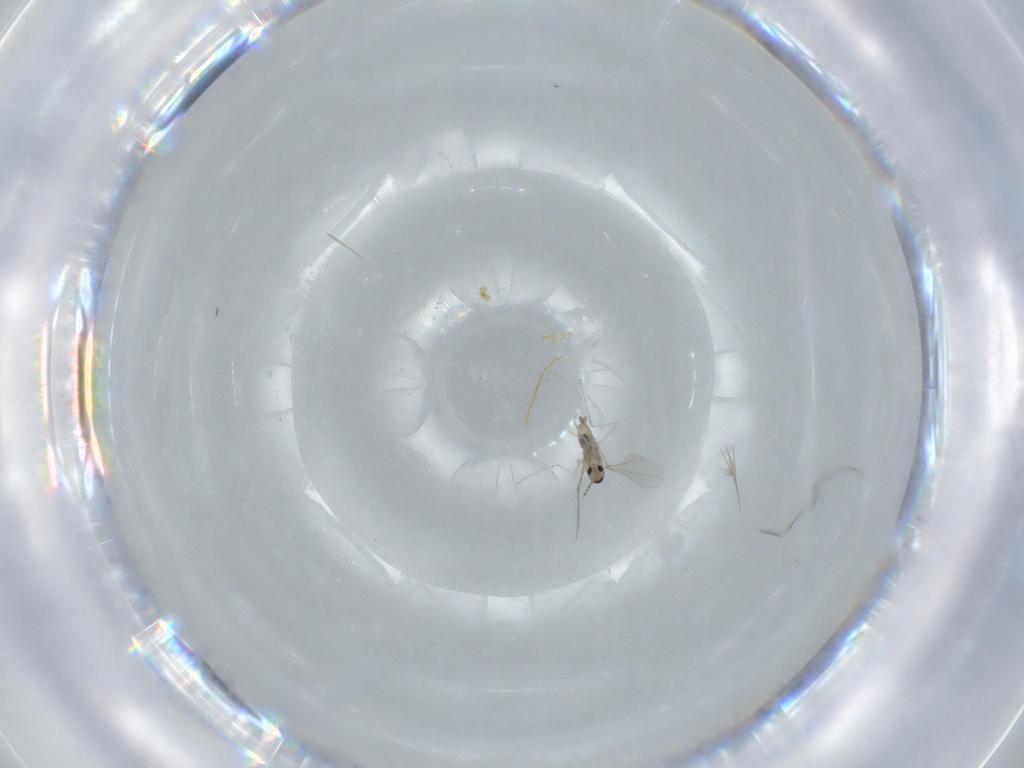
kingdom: Animalia
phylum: Arthropoda
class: Insecta
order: Diptera
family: Cecidomyiidae
